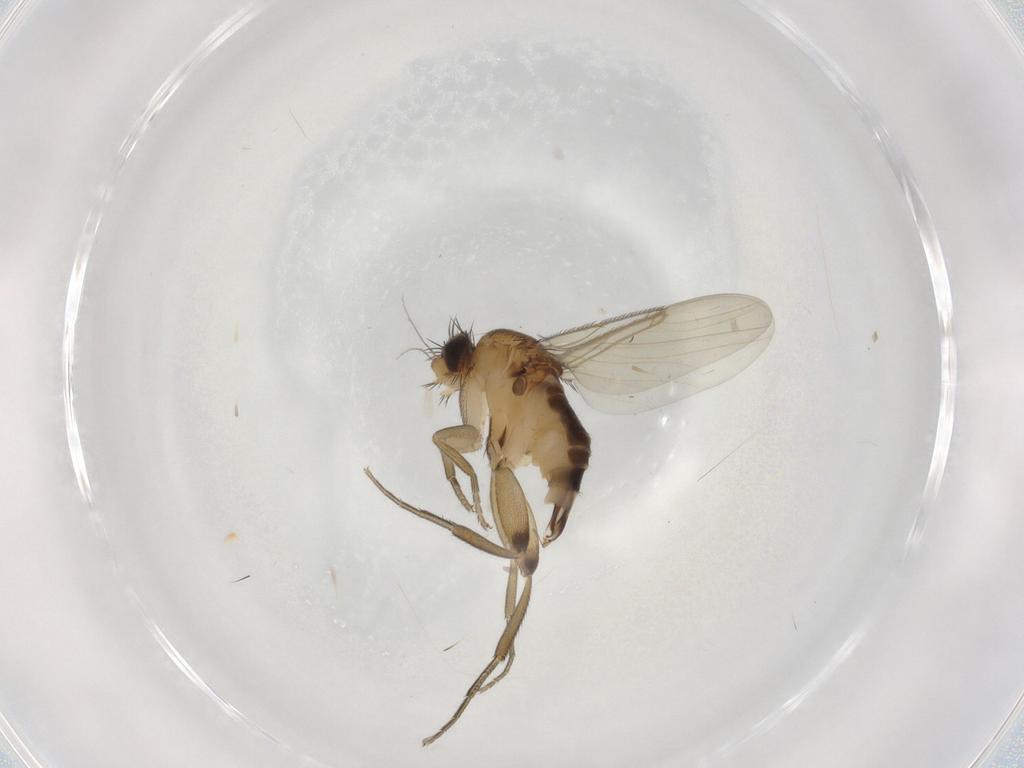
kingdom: Animalia
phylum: Arthropoda
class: Insecta
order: Diptera
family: Phoridae
